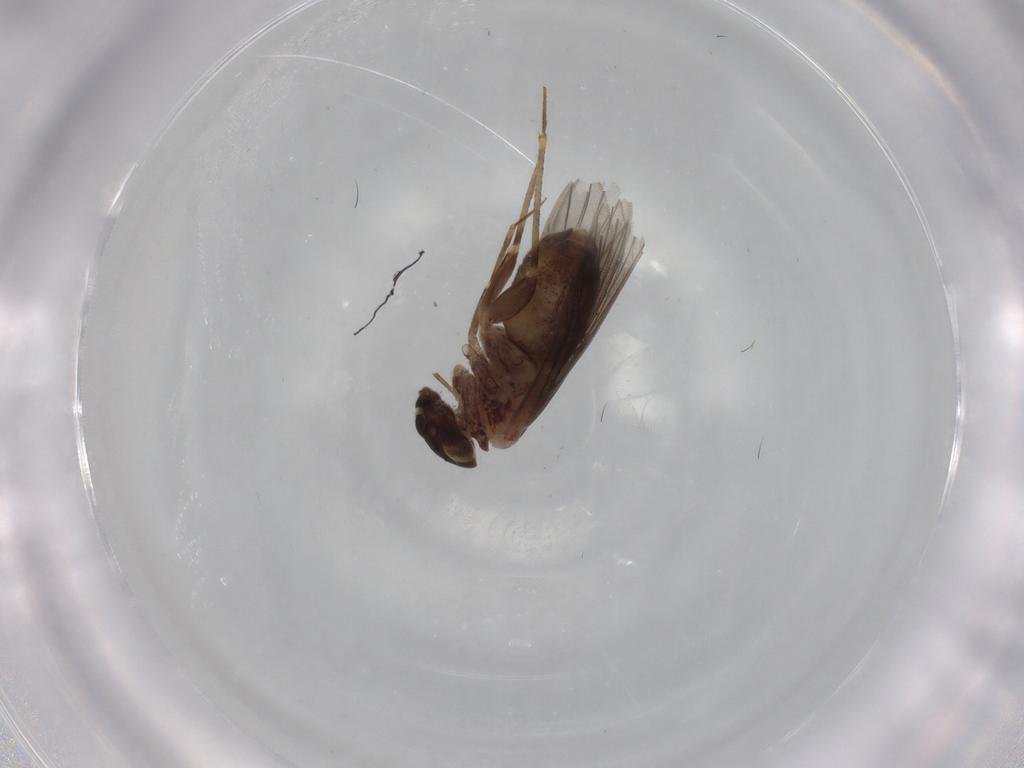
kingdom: Animalia
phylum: Arthropoda
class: Insecta
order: Psocodea
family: Lepidopsocidae
